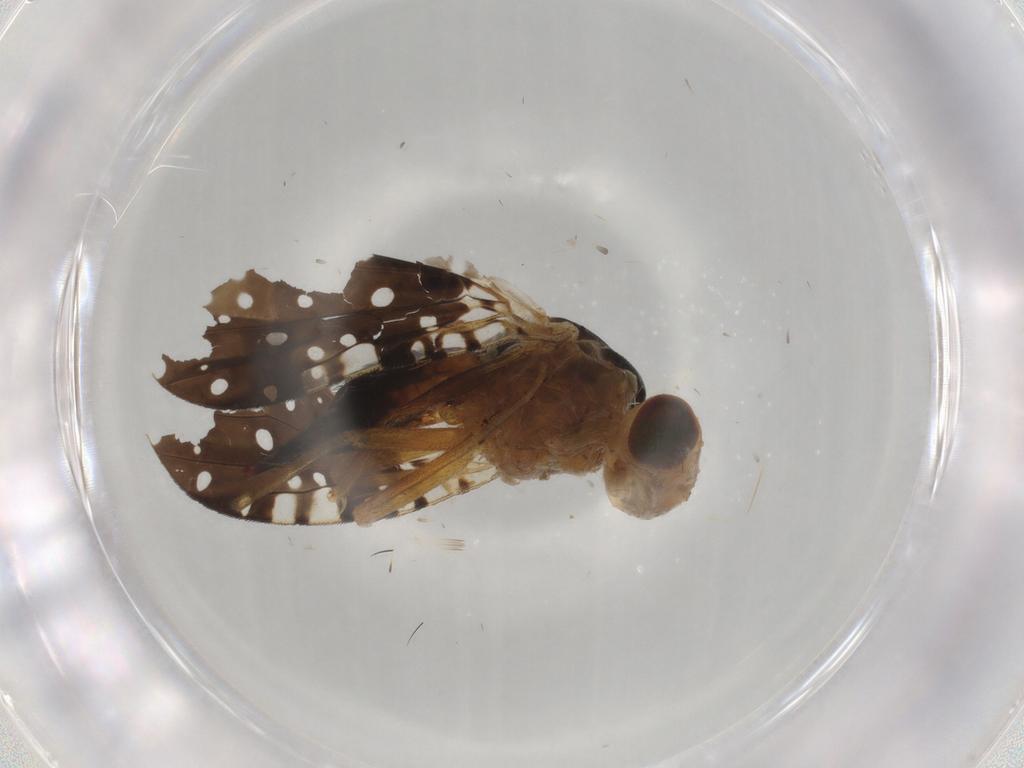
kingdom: Animalia
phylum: Arthropoda
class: Insecta
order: Diptera
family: Tephritidae
